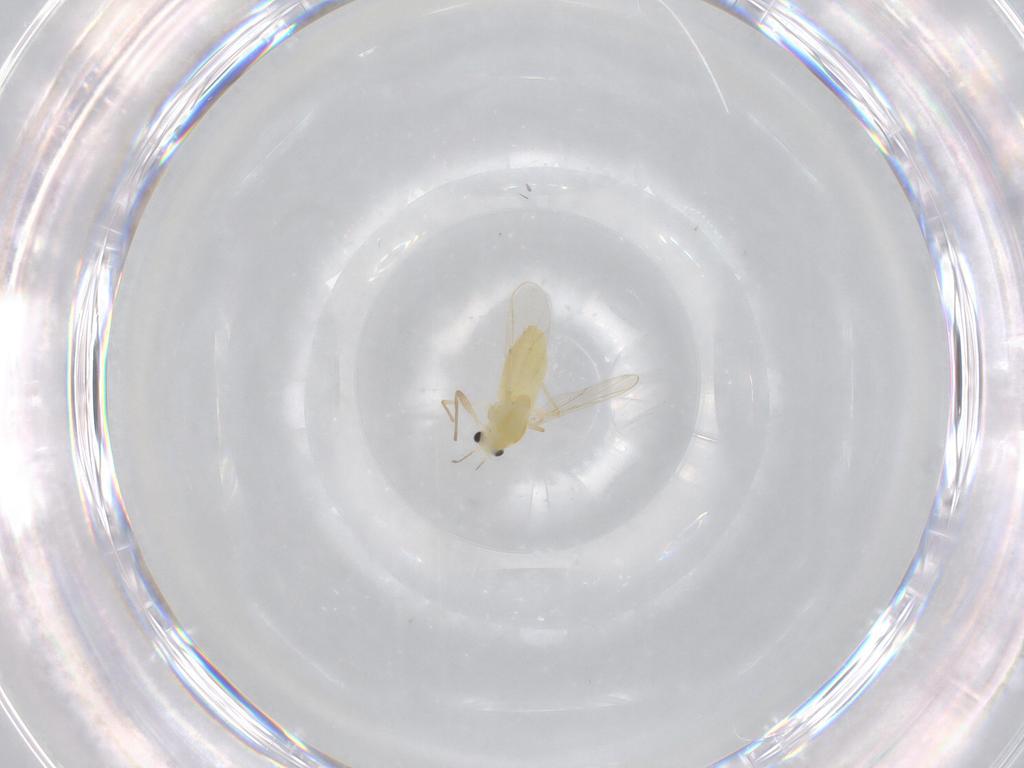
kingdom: Animalia
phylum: Arthropoda
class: Insecta
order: Diptera
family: Chironomidae
